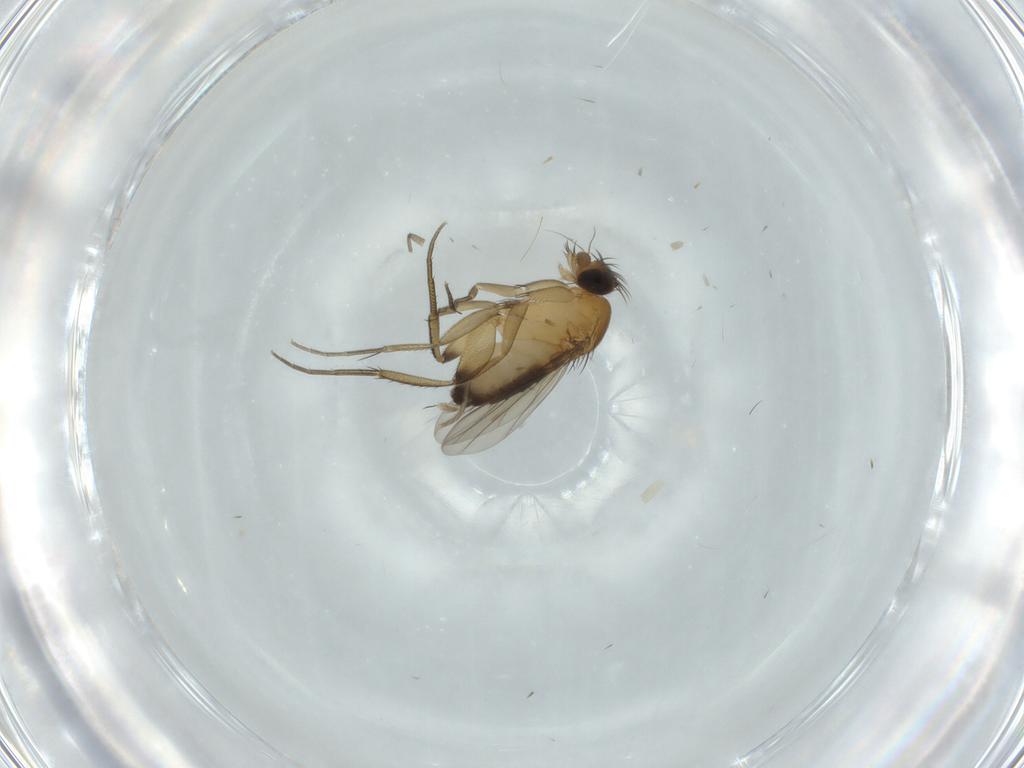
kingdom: Animalia
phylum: Arthropoda
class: Insecta
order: Diptera
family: Phoridae
